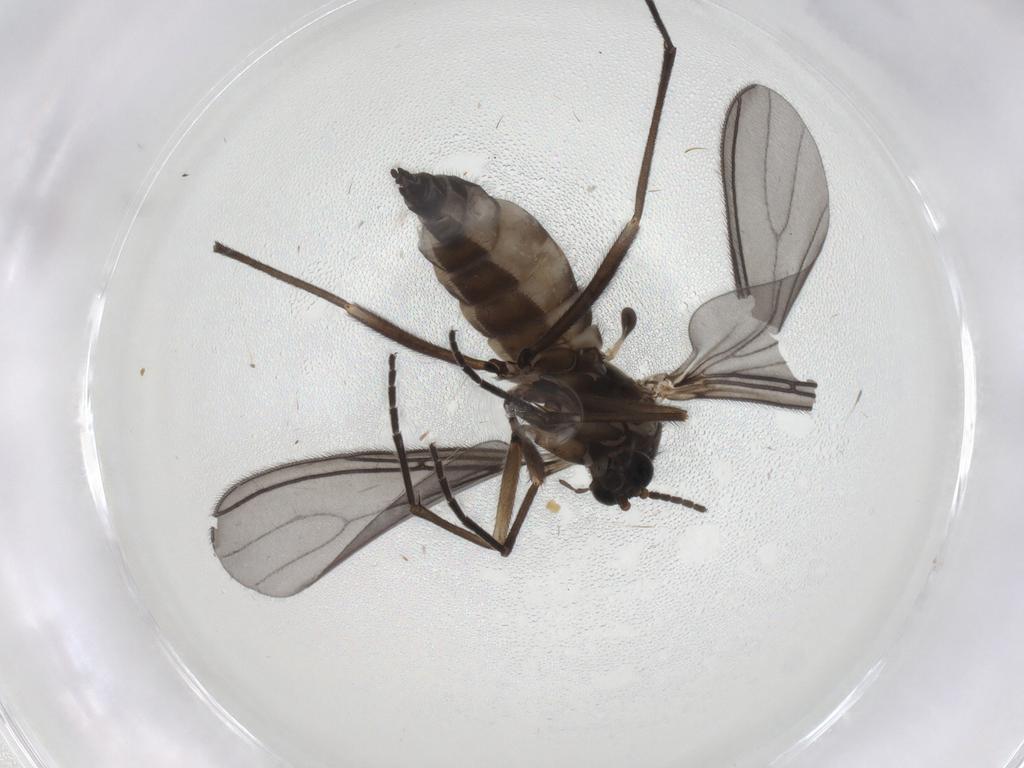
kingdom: Animalia
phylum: Arthropoda
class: Insecta
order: Diptera
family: Sciaridae
